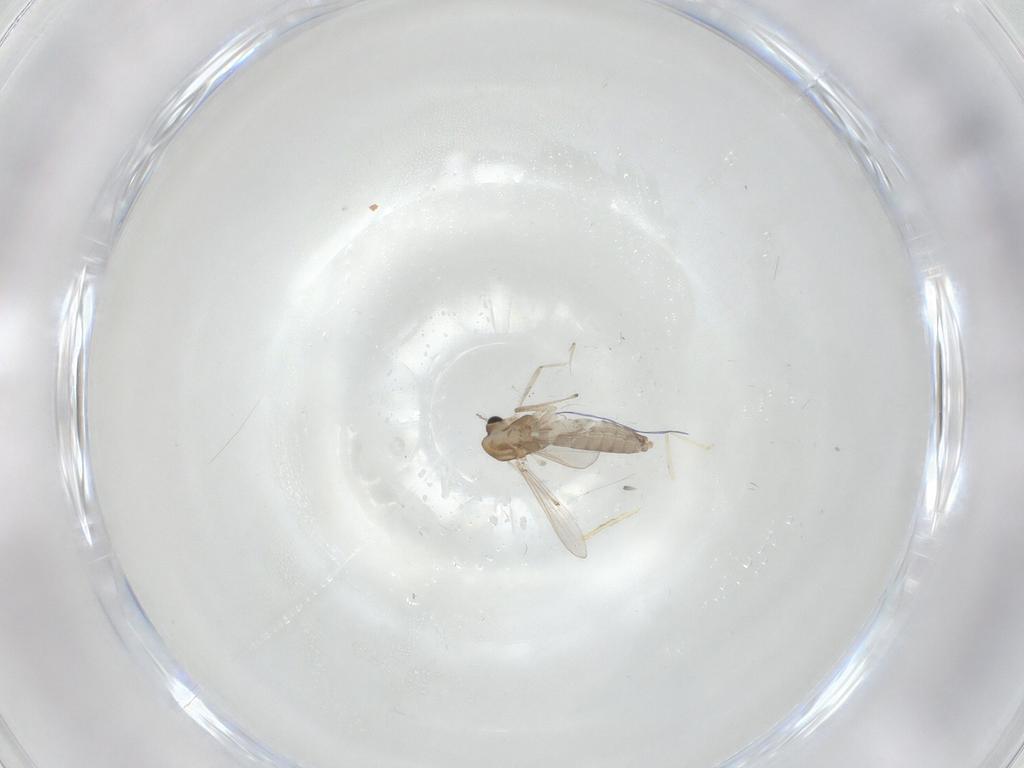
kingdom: Animalia
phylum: Arthropoda
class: Insecta
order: Diptera
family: Chironomidae
